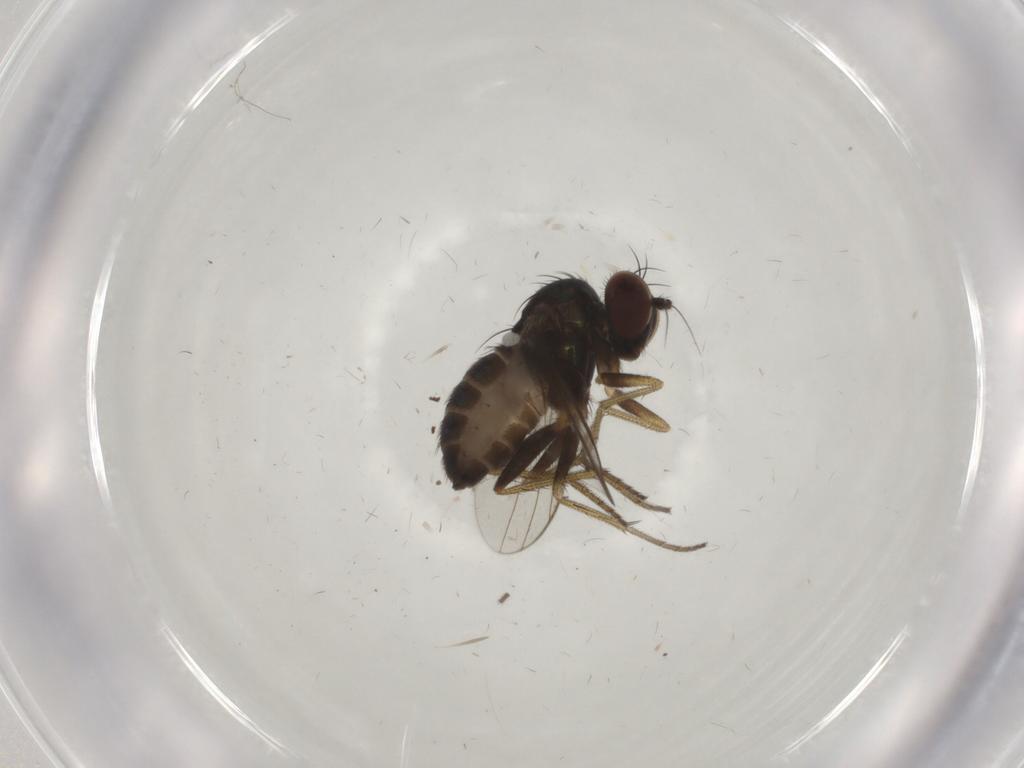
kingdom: Animalia
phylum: Arthropoda
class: Insecta
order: Diptera
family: Dolichopodidae
